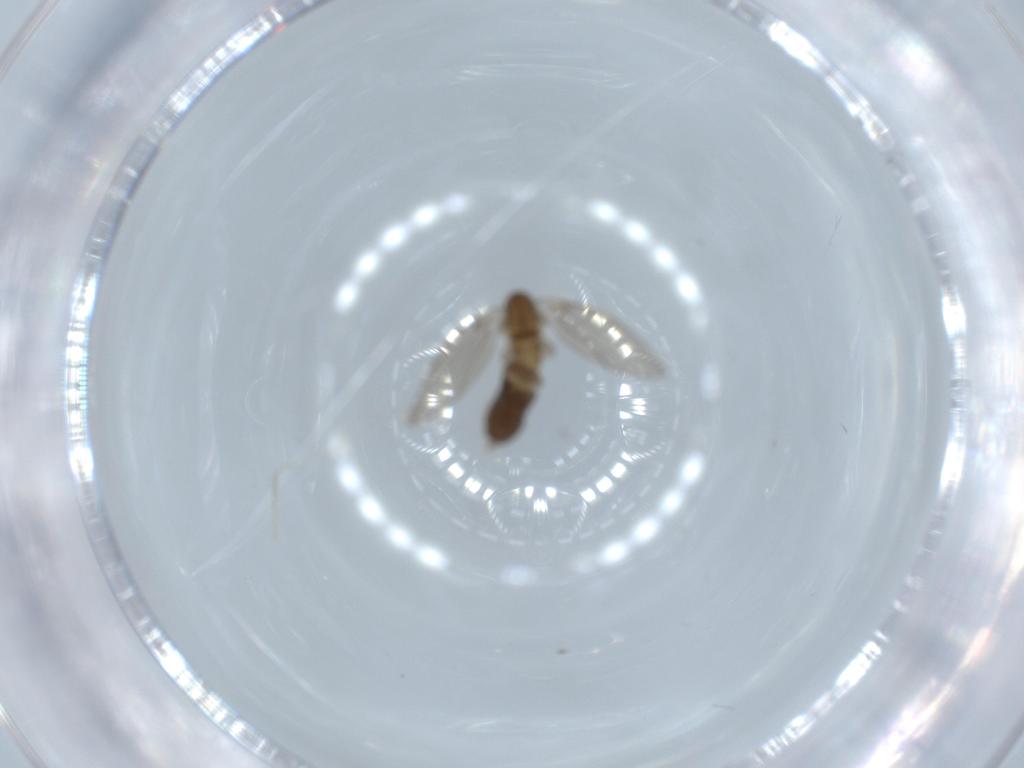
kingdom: Animalia
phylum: Arthropoda
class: Insecta
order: Diptera
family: Cecidomyiidae
